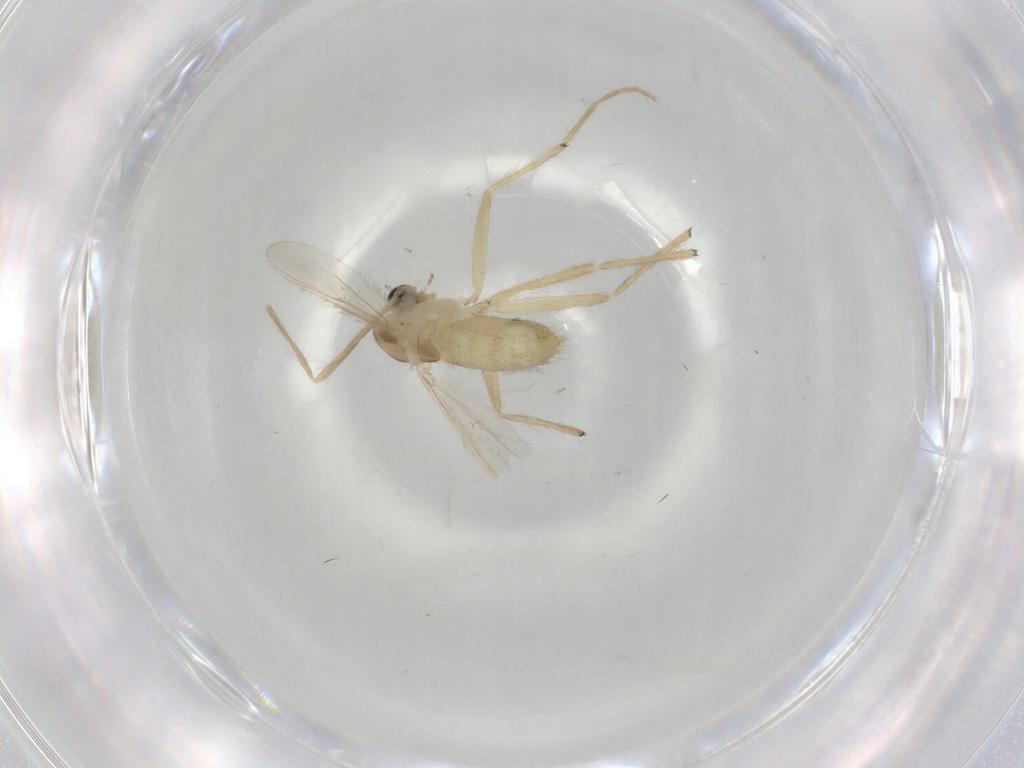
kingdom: Animalia
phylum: Arthropoda
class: Insecta
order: Diptera
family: Chironomidae
